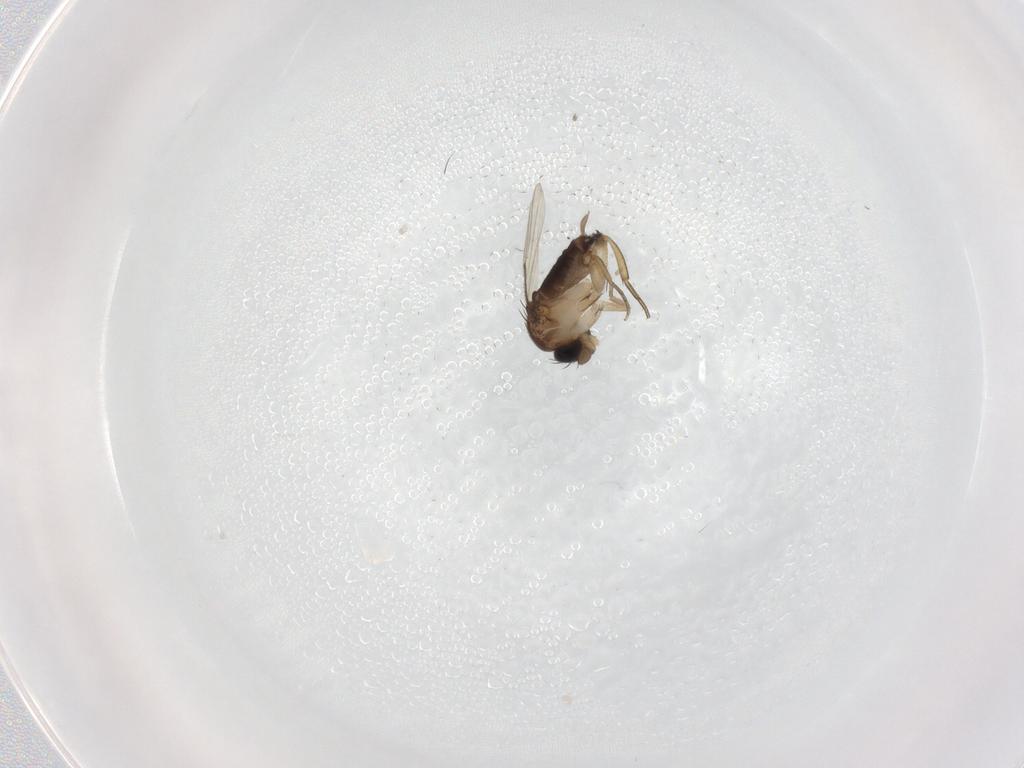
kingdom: Animalia
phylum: Arthropoda
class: Insecta
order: Diptera
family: Phoridae
